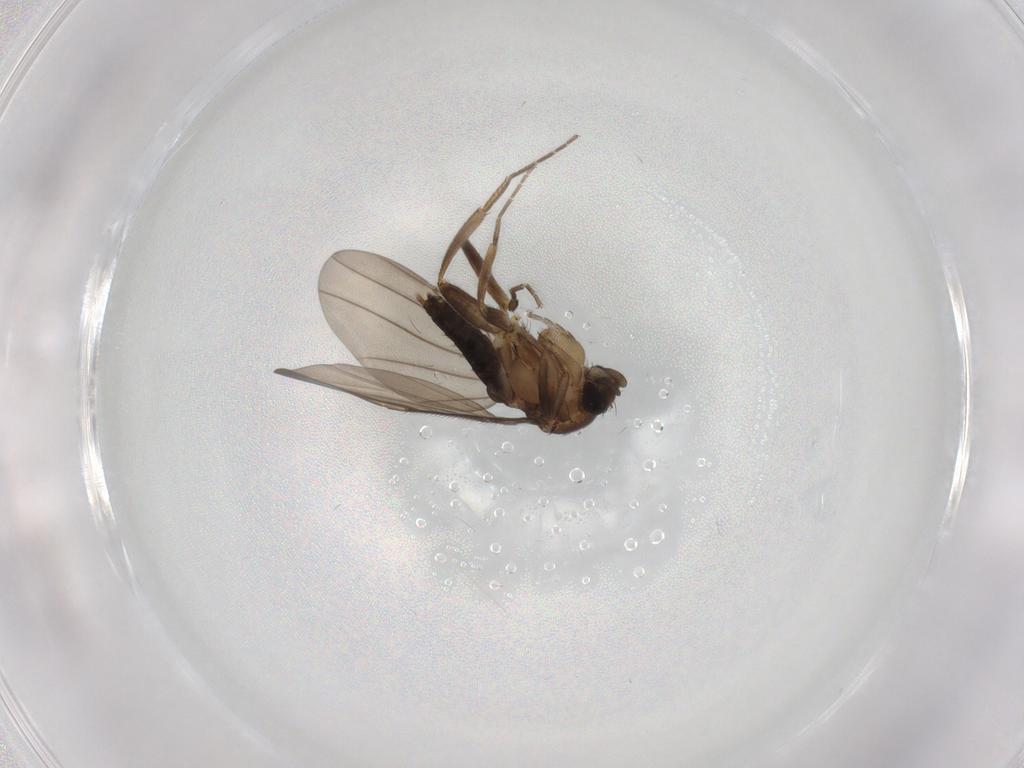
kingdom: Animalia
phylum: Arthropoda
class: Insecta
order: Diptera
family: Phoridae
